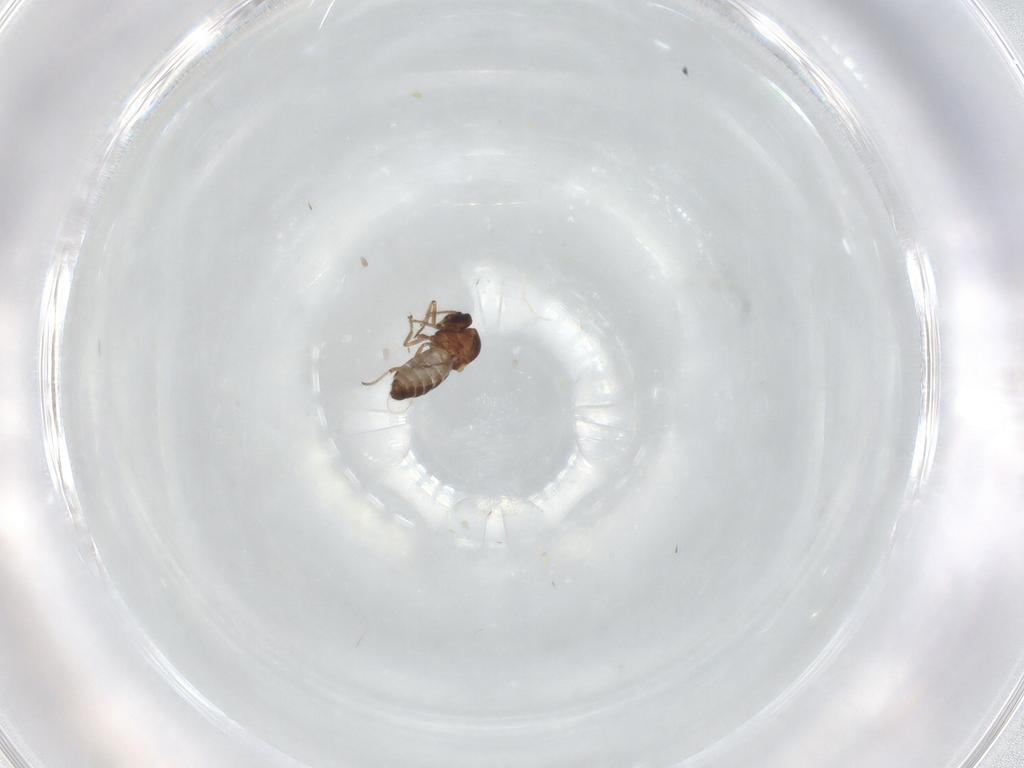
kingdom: Animalia
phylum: Arthropoda
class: Insecta
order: Diptera
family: Ceratopogonidae
